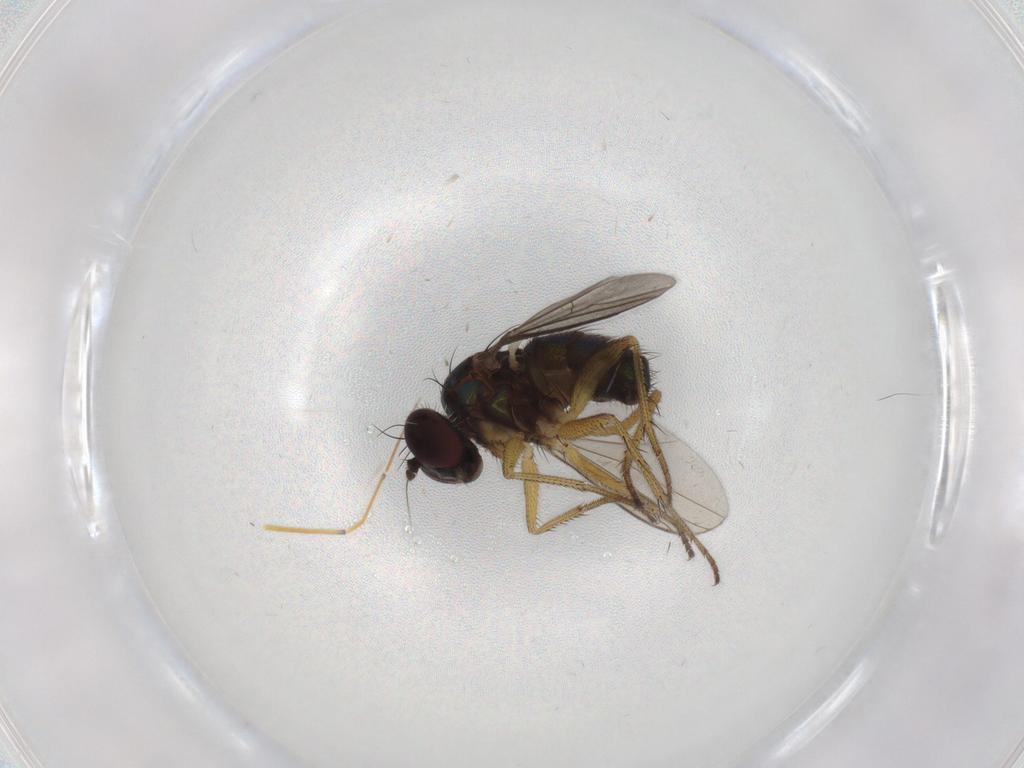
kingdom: Animalia
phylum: Arthropoda
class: Insecta
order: Diptera
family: Dolichopodidae
